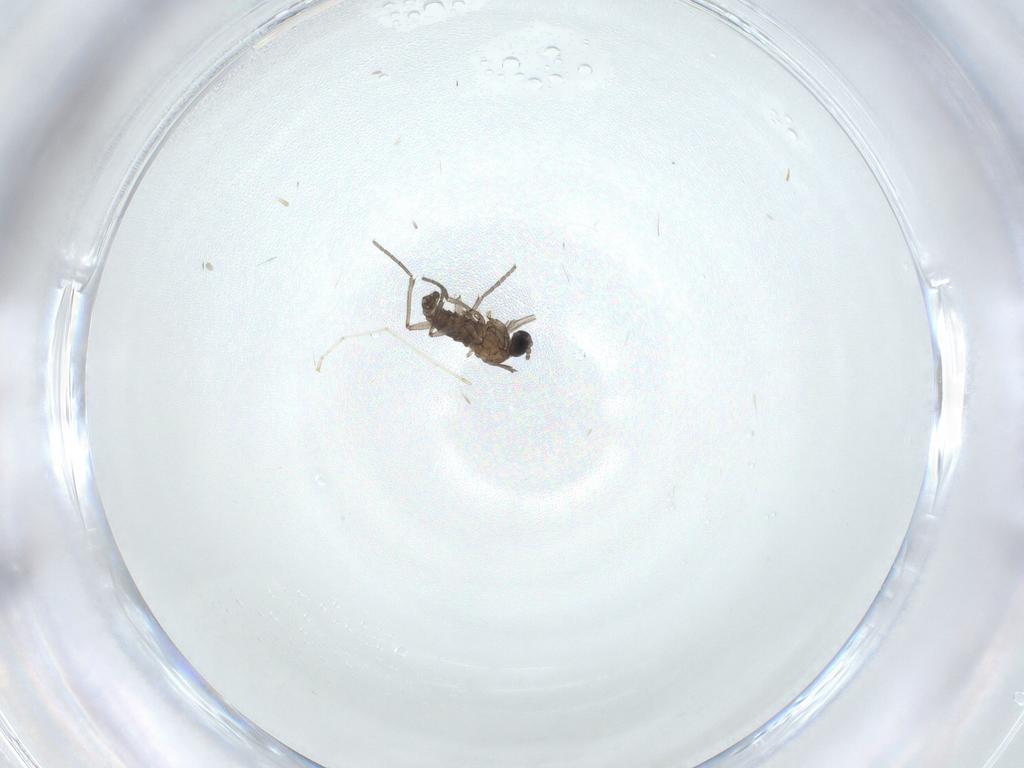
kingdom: Animalia
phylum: Arthropoda
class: Insecta
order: Diptera
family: Sciaridae
